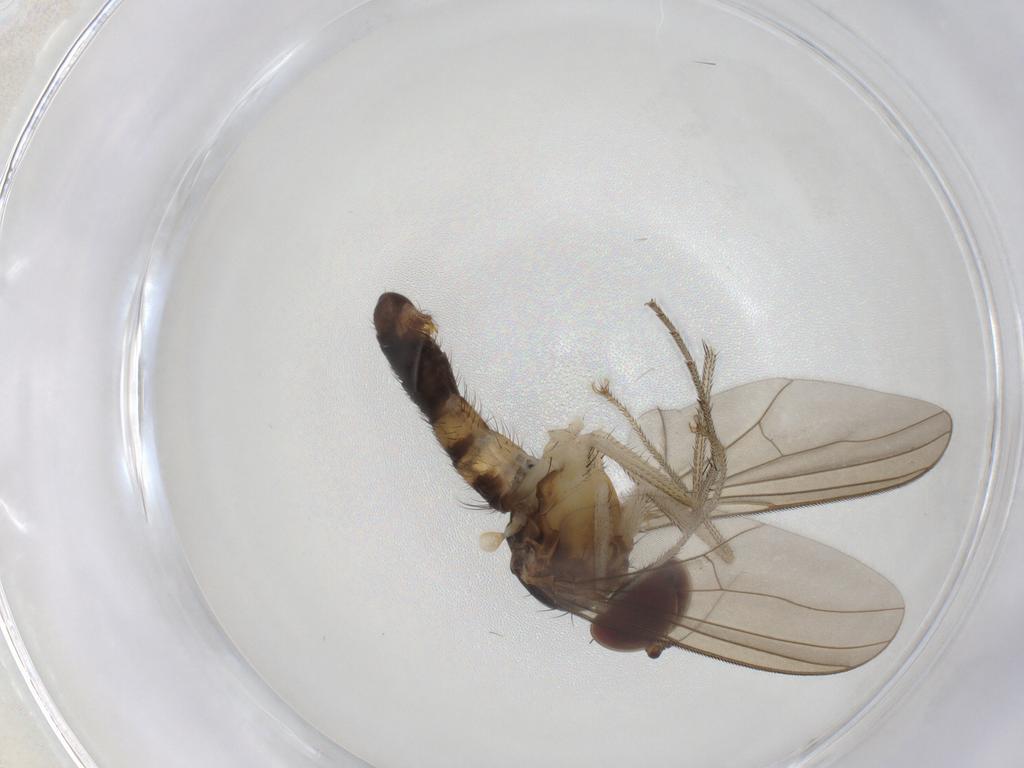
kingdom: Animalia
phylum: Arthropoda
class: Insecta
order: Diptera
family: Dolichopodidae
